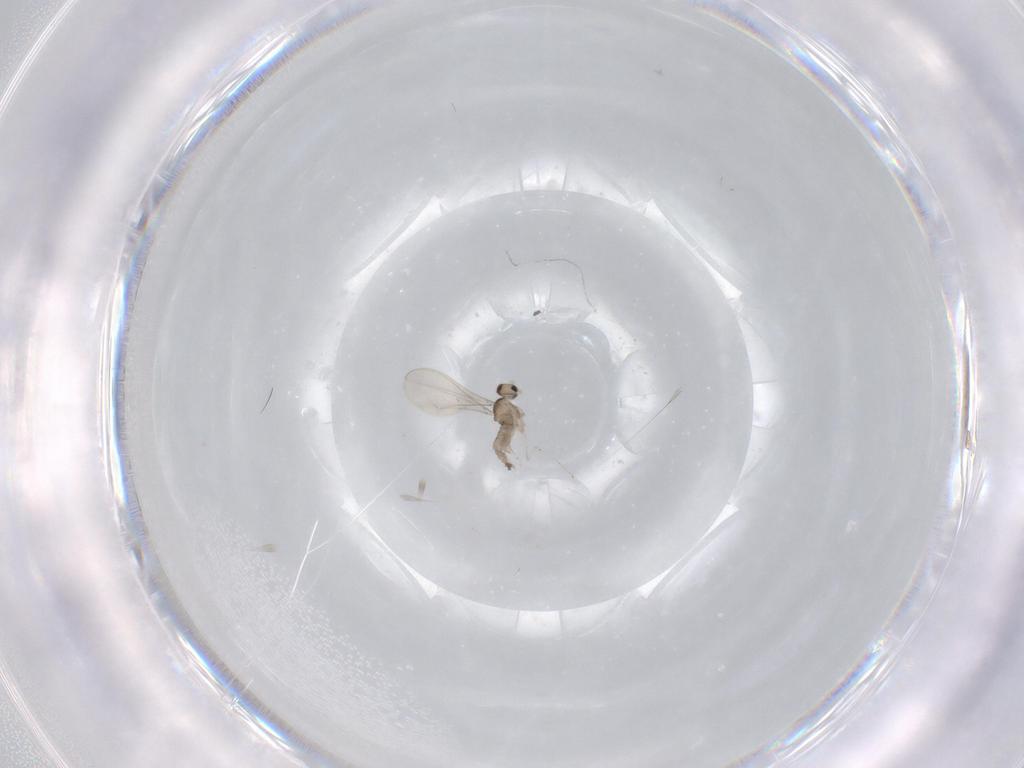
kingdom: Animalia
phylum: Arthropoda
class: Insecta
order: Diptera
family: Cecidomyiidae
